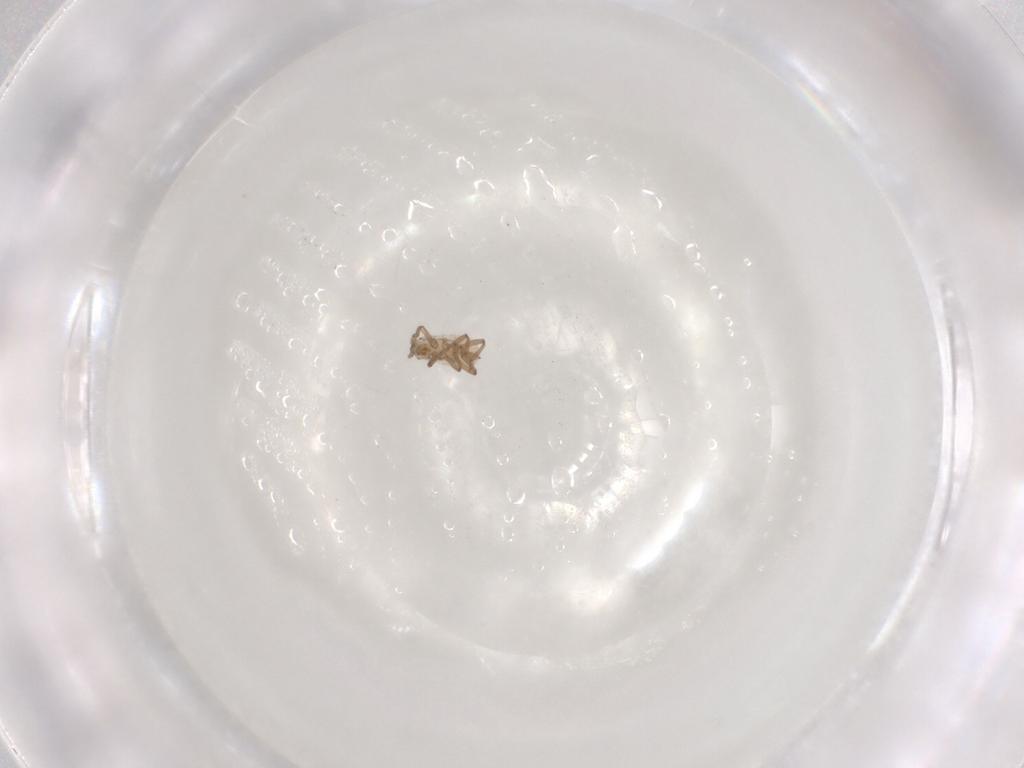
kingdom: Animalia
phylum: Arthropoda
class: Insecta
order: Hemiptera
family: Aphididae
